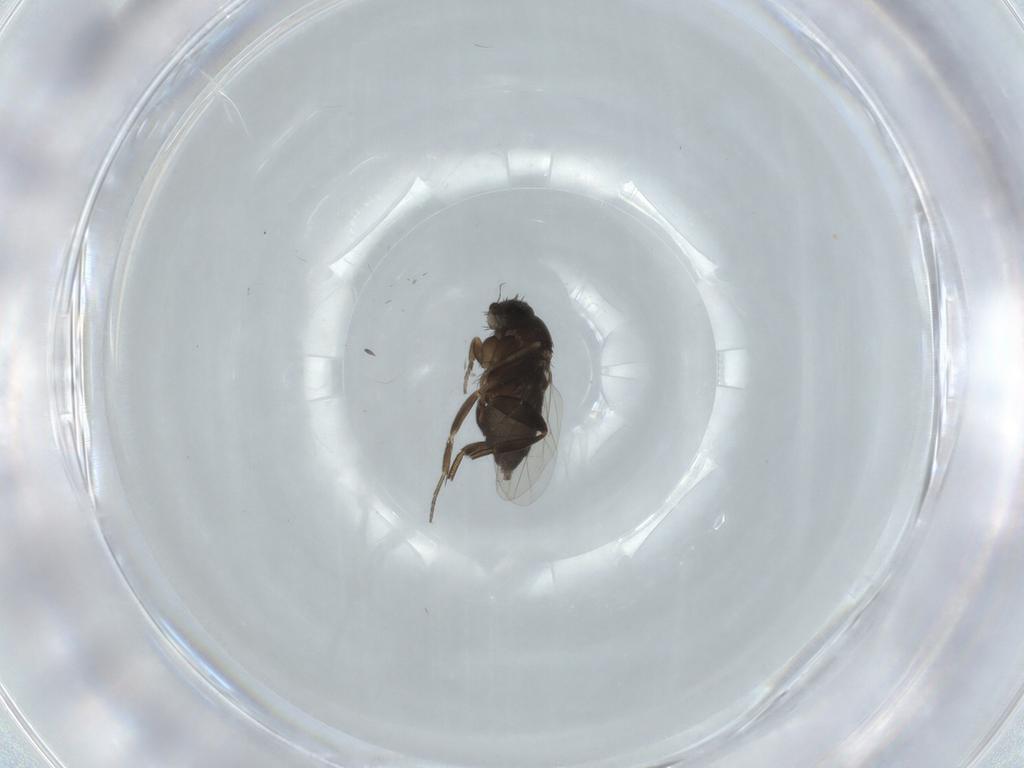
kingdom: Animalia
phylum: Arthropoda
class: Insecta
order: Diptera
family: Phoridae
